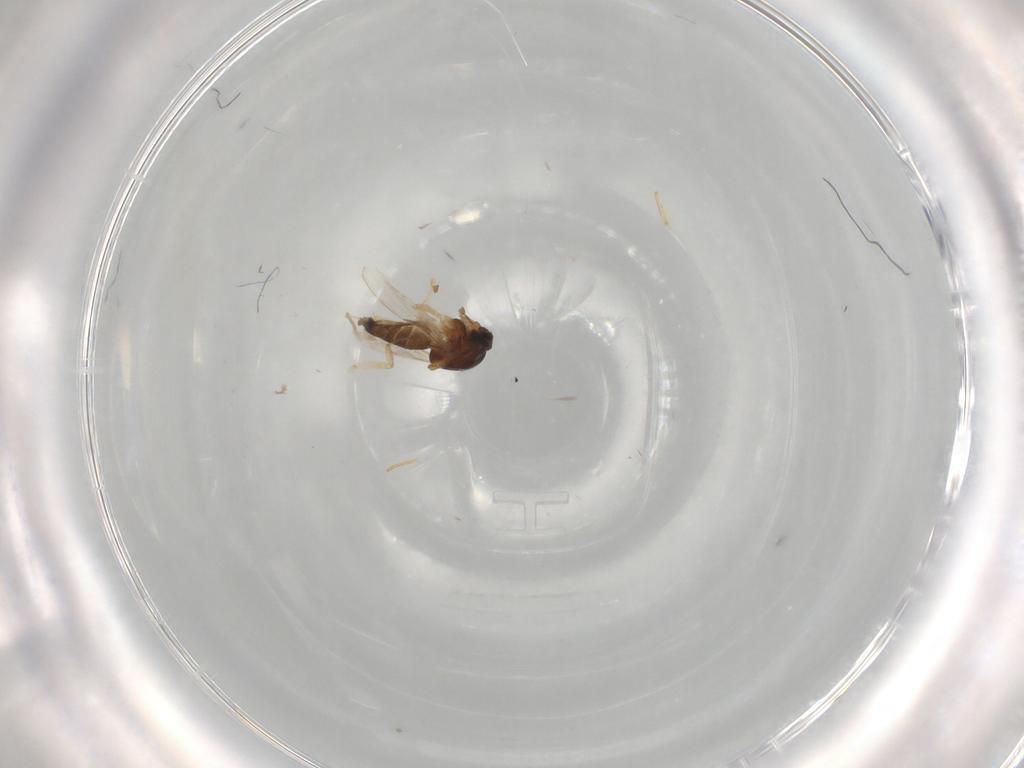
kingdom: Animalia
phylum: Arthropoda
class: Insecta
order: Diptera
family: Ceratopogonidae
